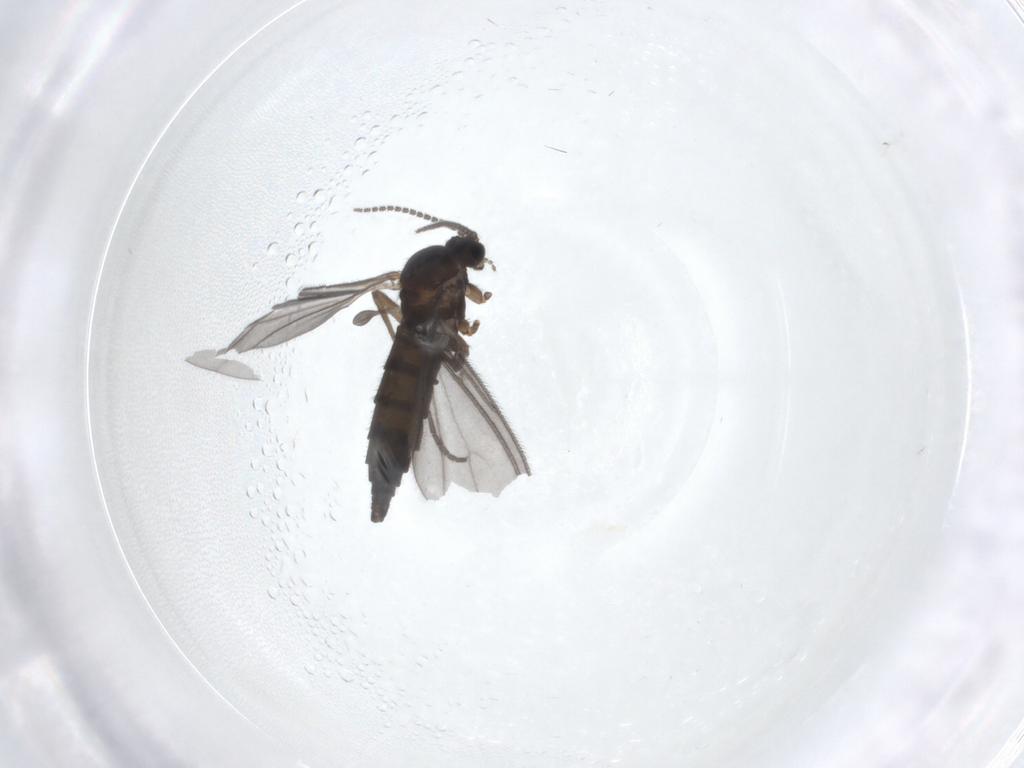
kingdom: Animalia
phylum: Arthropoda
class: Insecta
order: Diptera
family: Sciaridae
